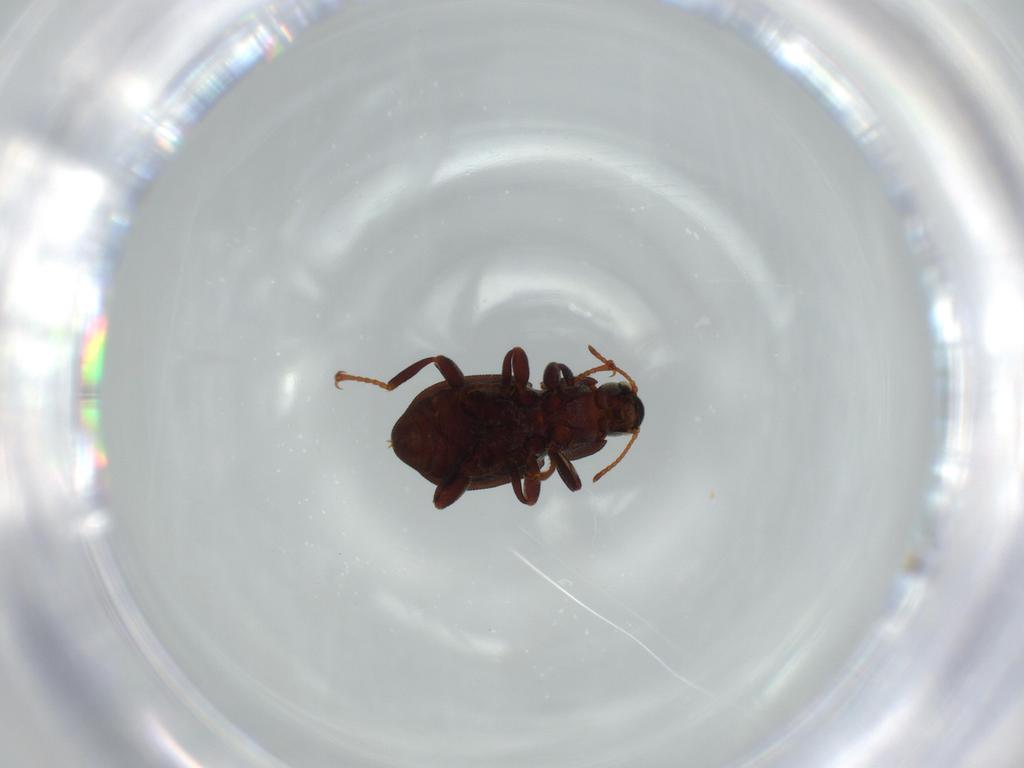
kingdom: Animalia
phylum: Arthropoda
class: Insecta
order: Coleoptera
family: Elmidae
